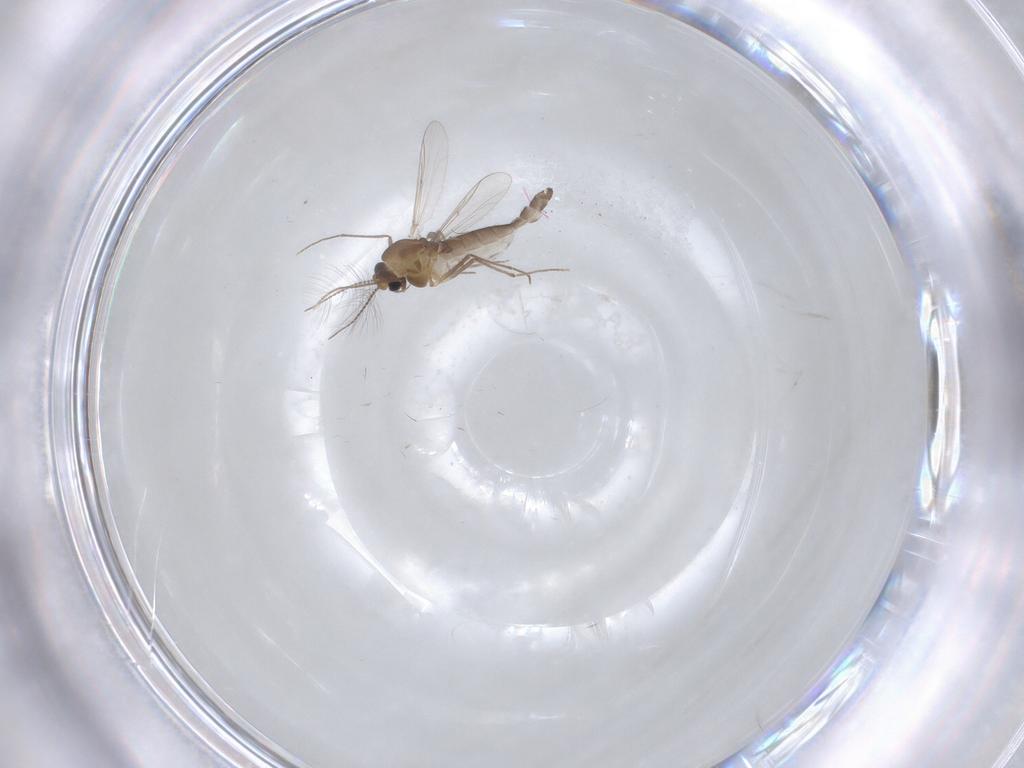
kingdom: Animalia
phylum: Arthropoda
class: Insecta
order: Diptera
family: Chironomidae
